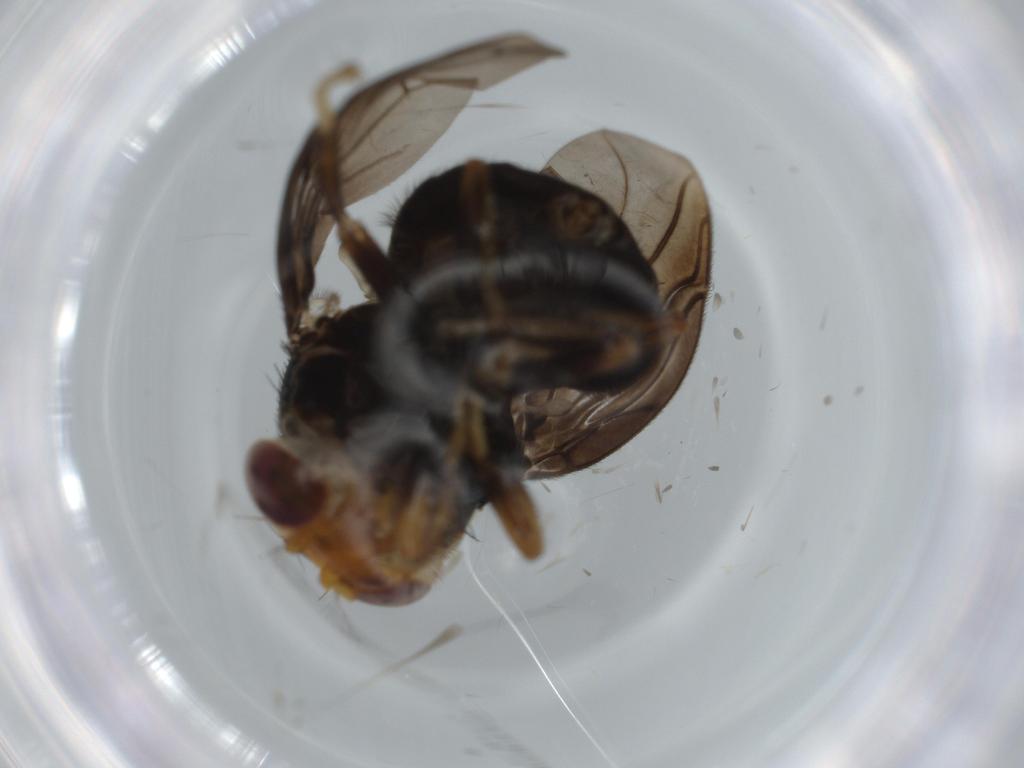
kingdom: Animalia
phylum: Arthropoda
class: Insecta
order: Diptera
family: Ulidiidae
